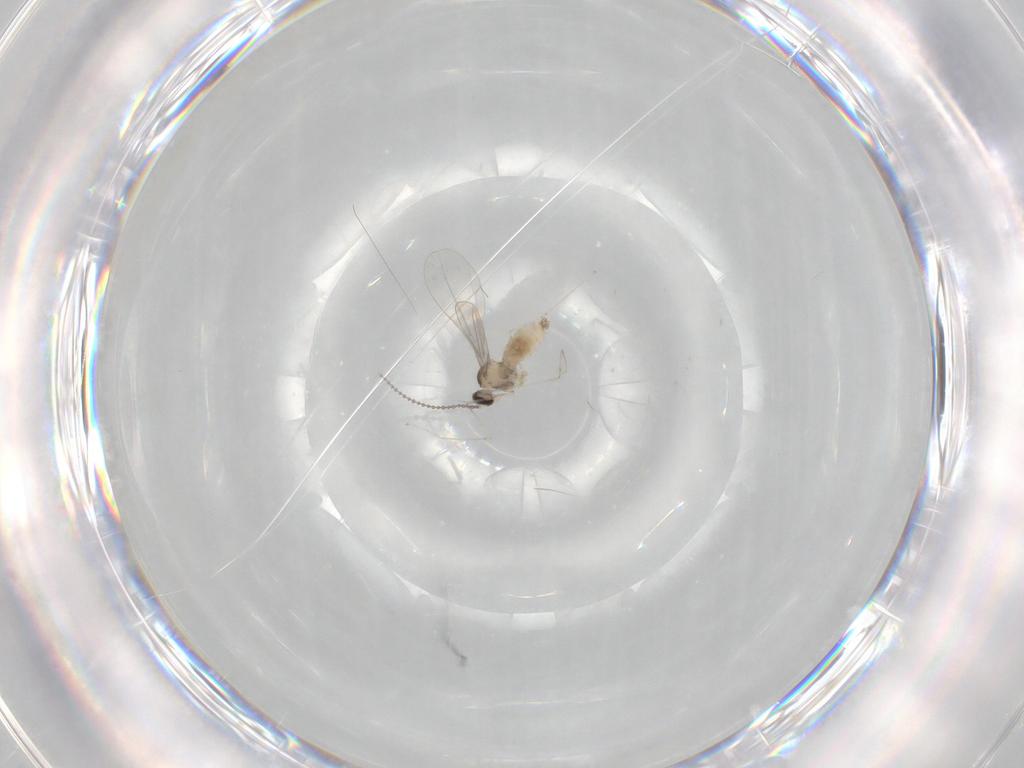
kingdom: Animalia
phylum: Arthropoda
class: Insecta
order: Diptera
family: Cecidomyiidae
